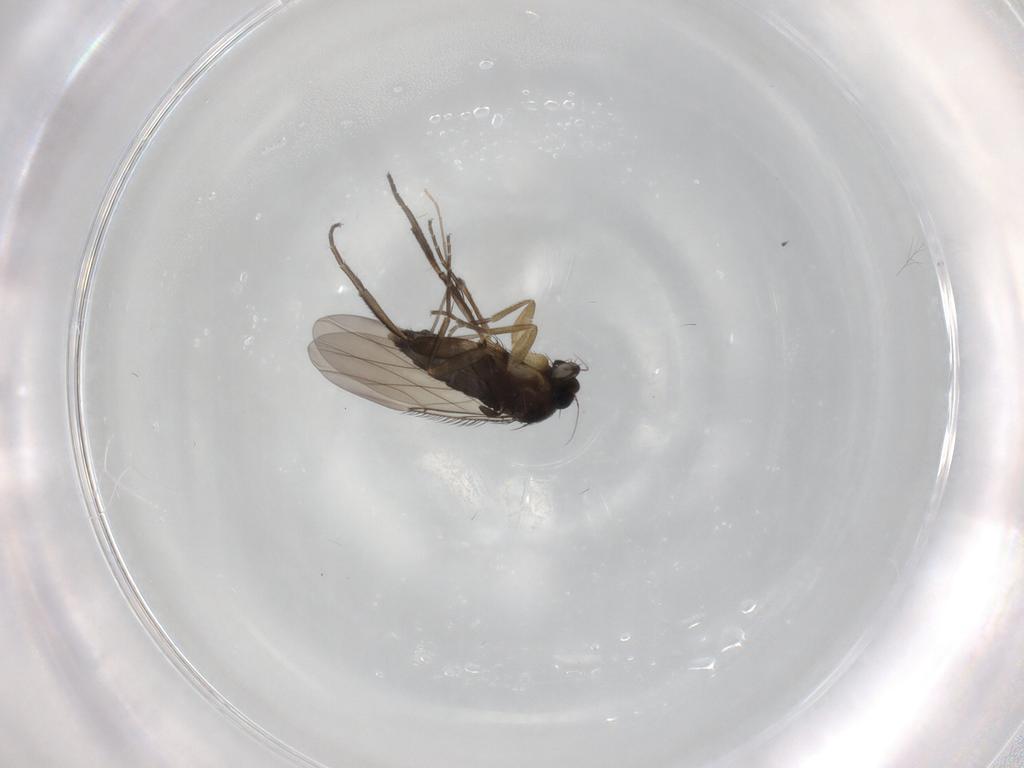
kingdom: Animalia
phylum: Arthropoda
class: Insecta
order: Diptera
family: Phoridae
